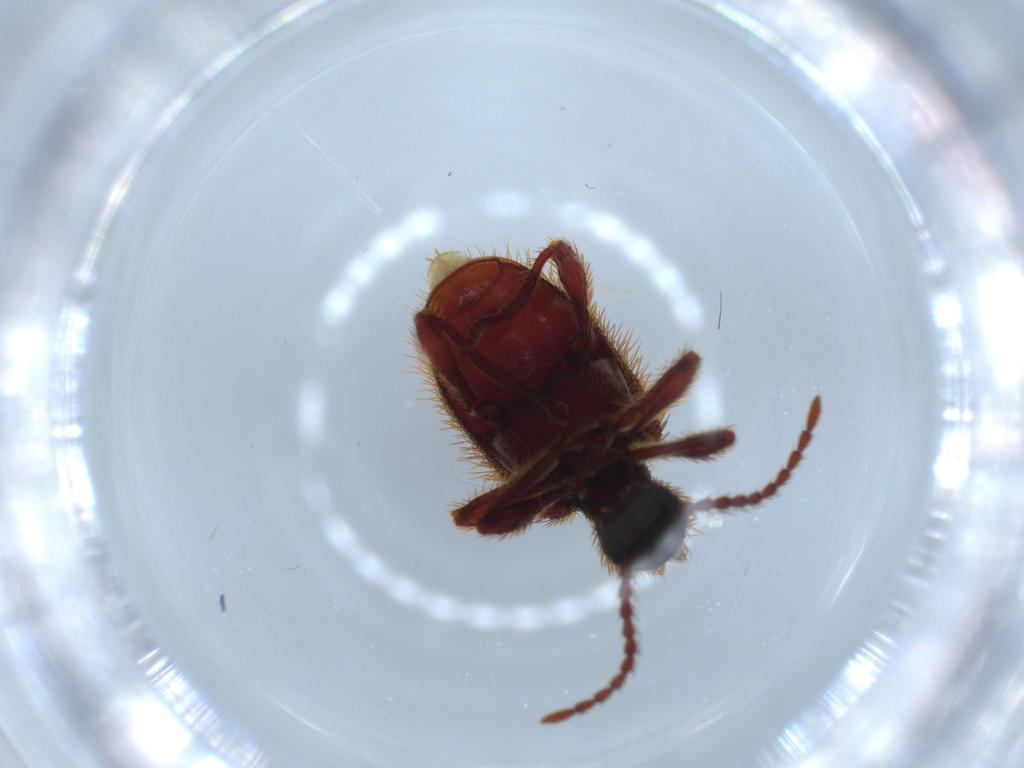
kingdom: Animalia
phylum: Arthropoda
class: Insecta
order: Coleoptera
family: Ptinidae
